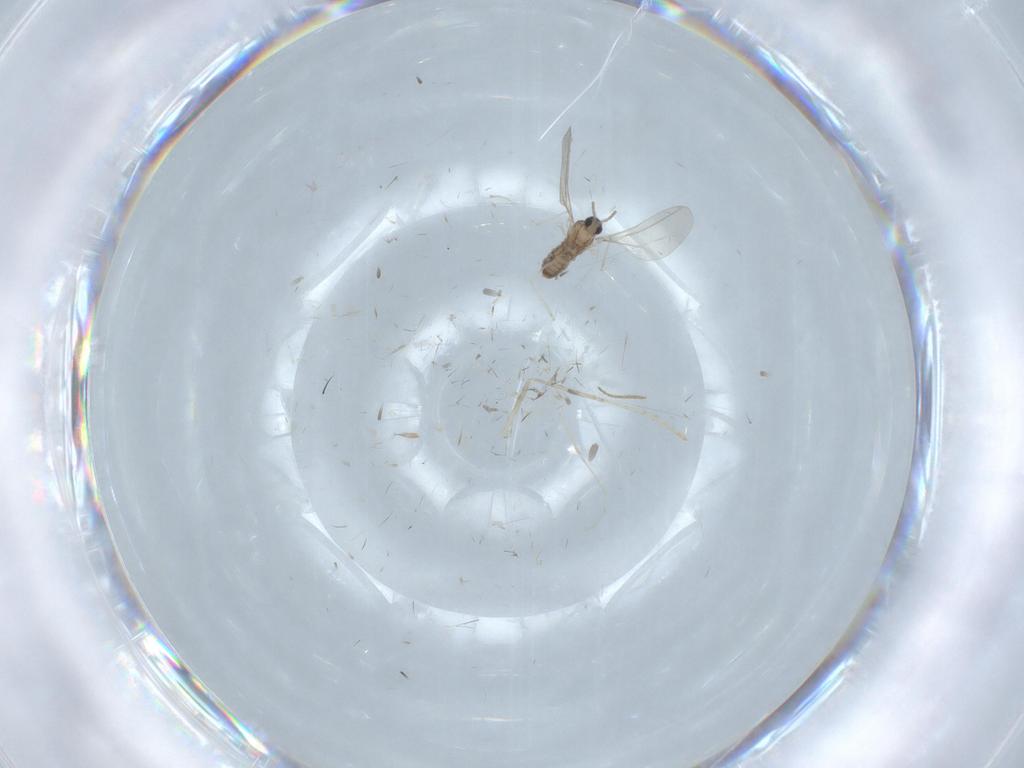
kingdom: Animalia
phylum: Arthropoda
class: Insecta
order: Diptera
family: Cecidomyiidae
